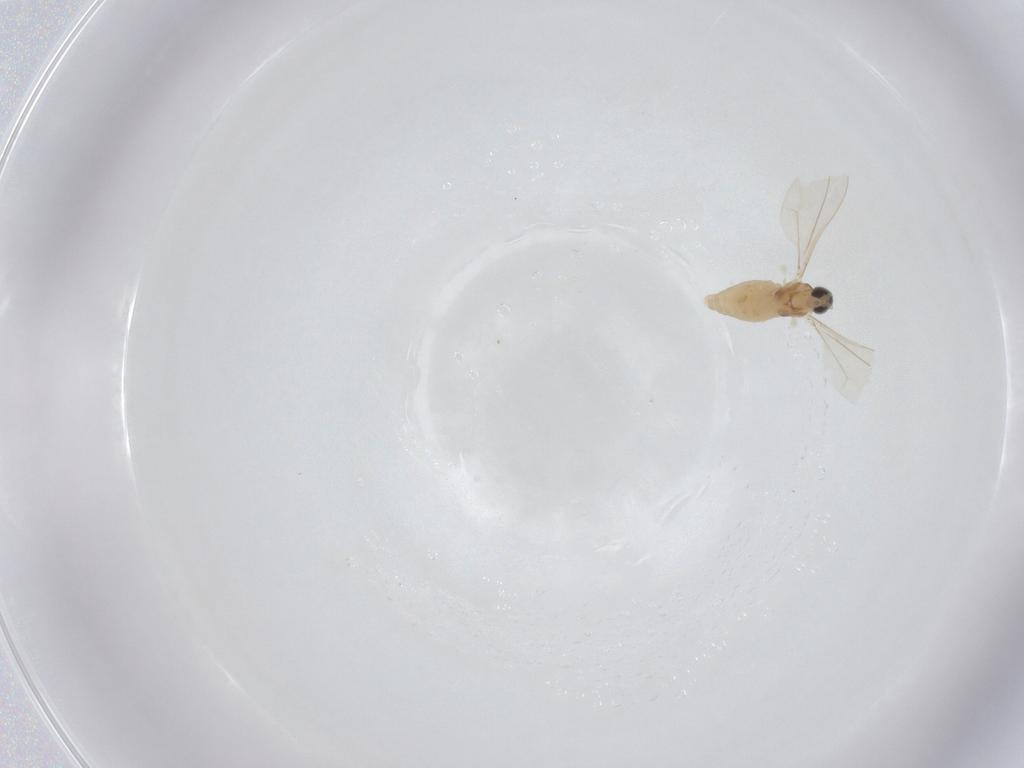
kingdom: Animalia
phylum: Arthropoda
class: Insecta
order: Diptera
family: Cecidomyiidae
